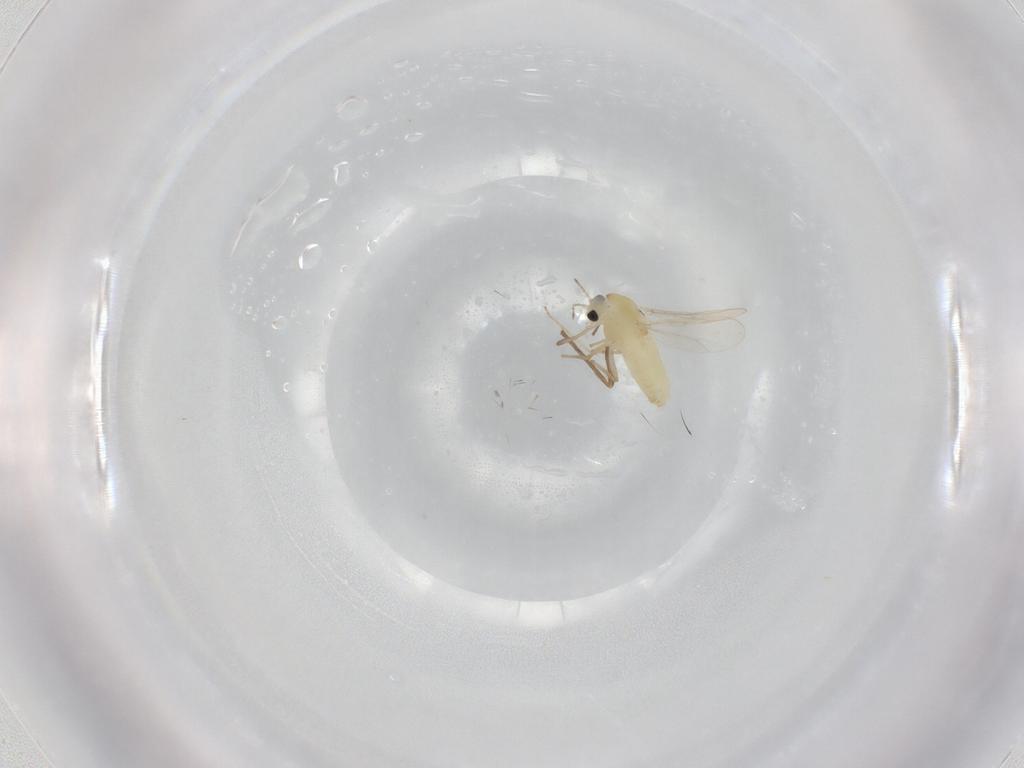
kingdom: Animalia
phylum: Arthropoda
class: Insecta
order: Diptera
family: Chironomidae
